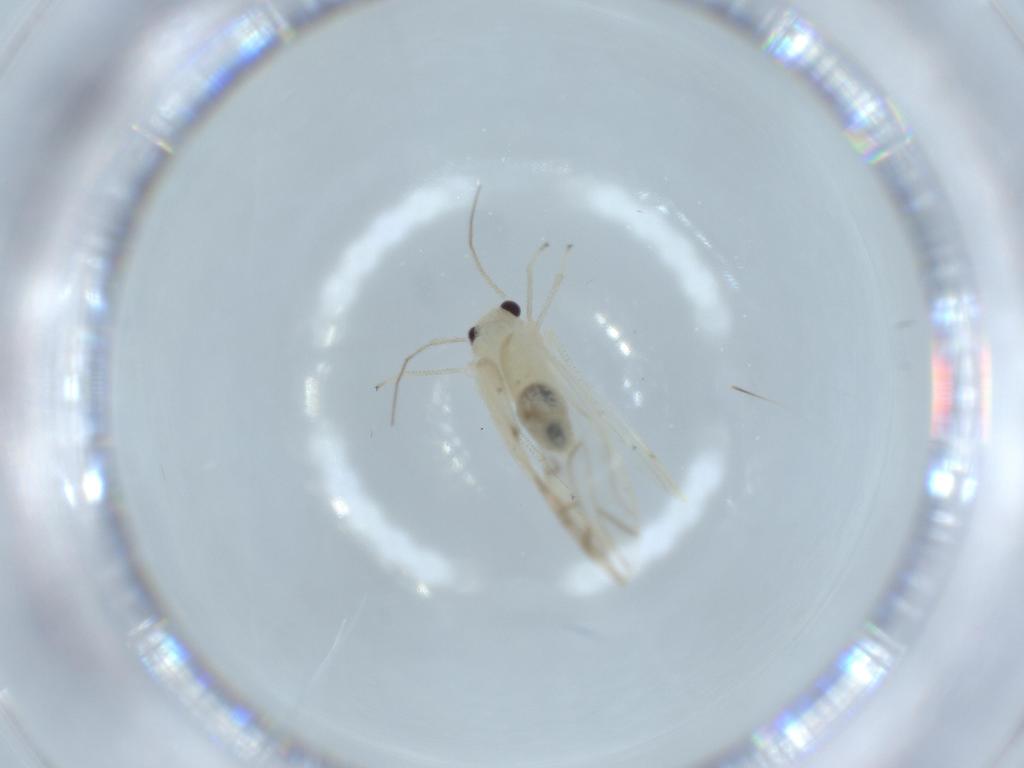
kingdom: Animalia
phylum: Arthropoda
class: Insecta
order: Psocodea
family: Caeciliusidae
